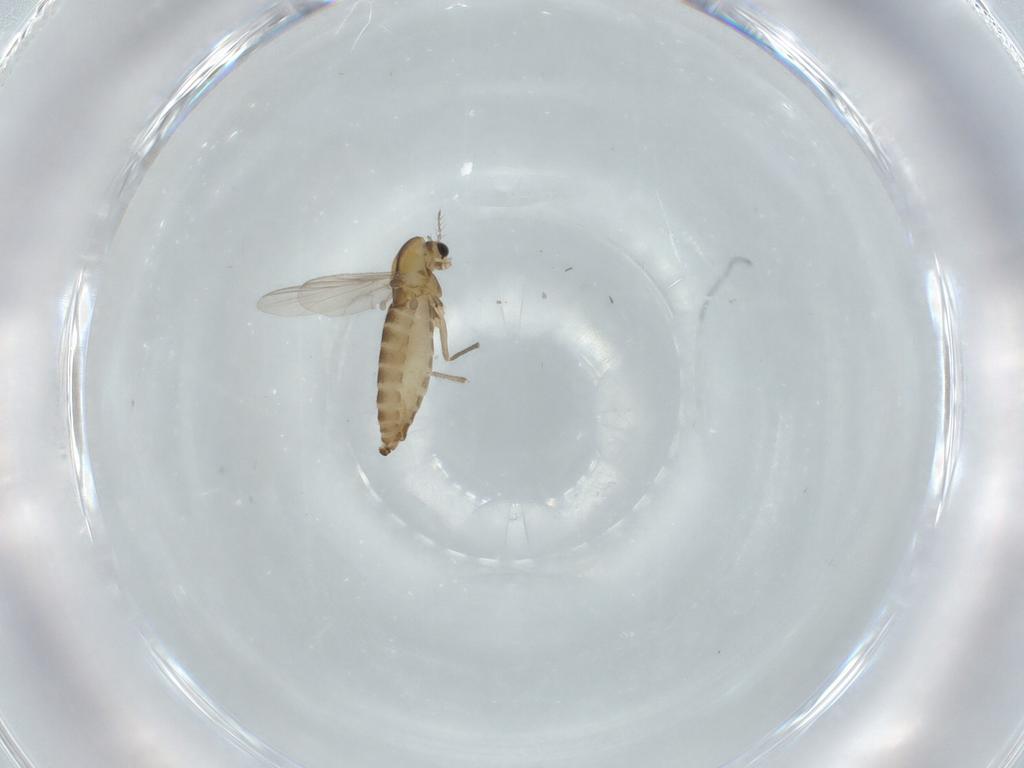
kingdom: Animalia
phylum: Arthropoda
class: Insecta
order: Diptera
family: Chironomidae
